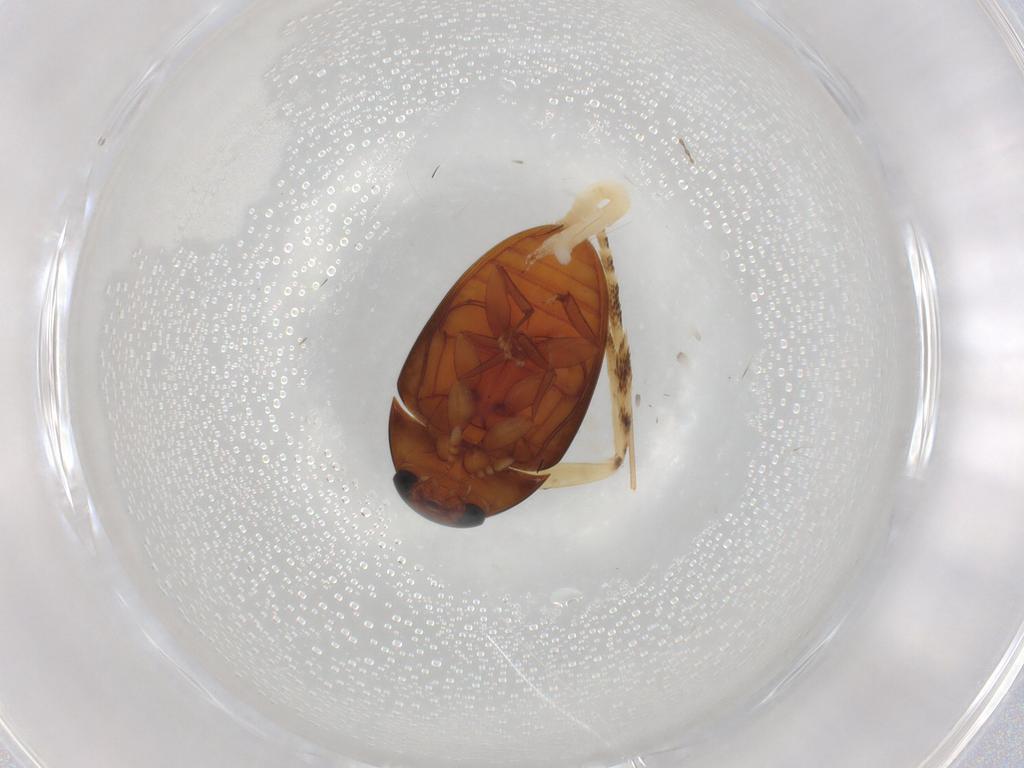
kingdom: Animalia
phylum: Arthropoda
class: Insecta
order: Coleoptera
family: Phalacridae
